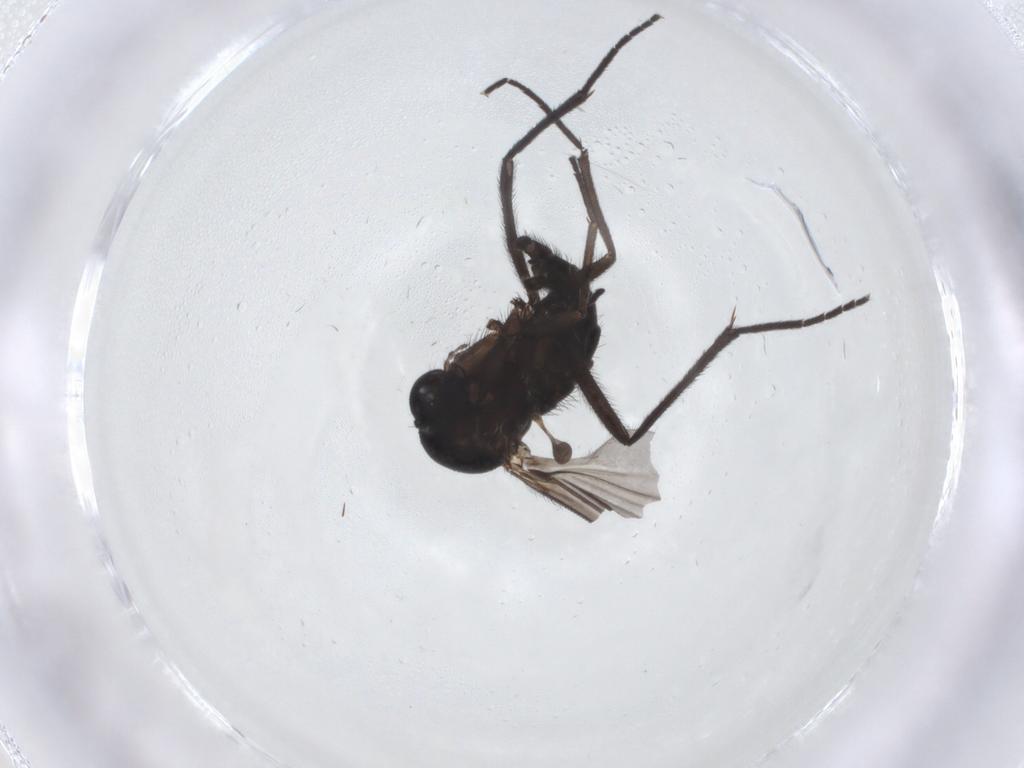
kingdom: Animalia
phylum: Arthropoda
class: Insecta
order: Diptera
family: Sciaridae
